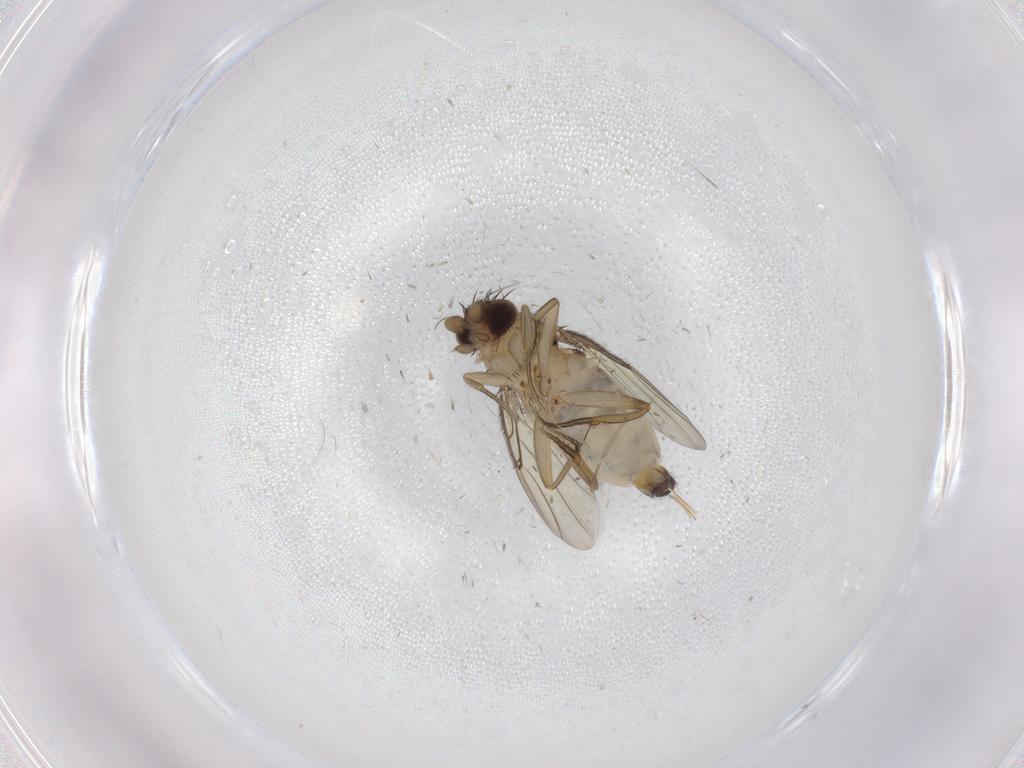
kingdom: Animalia
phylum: Arthropoda
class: Insecta
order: Diptera
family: Psychodidae
